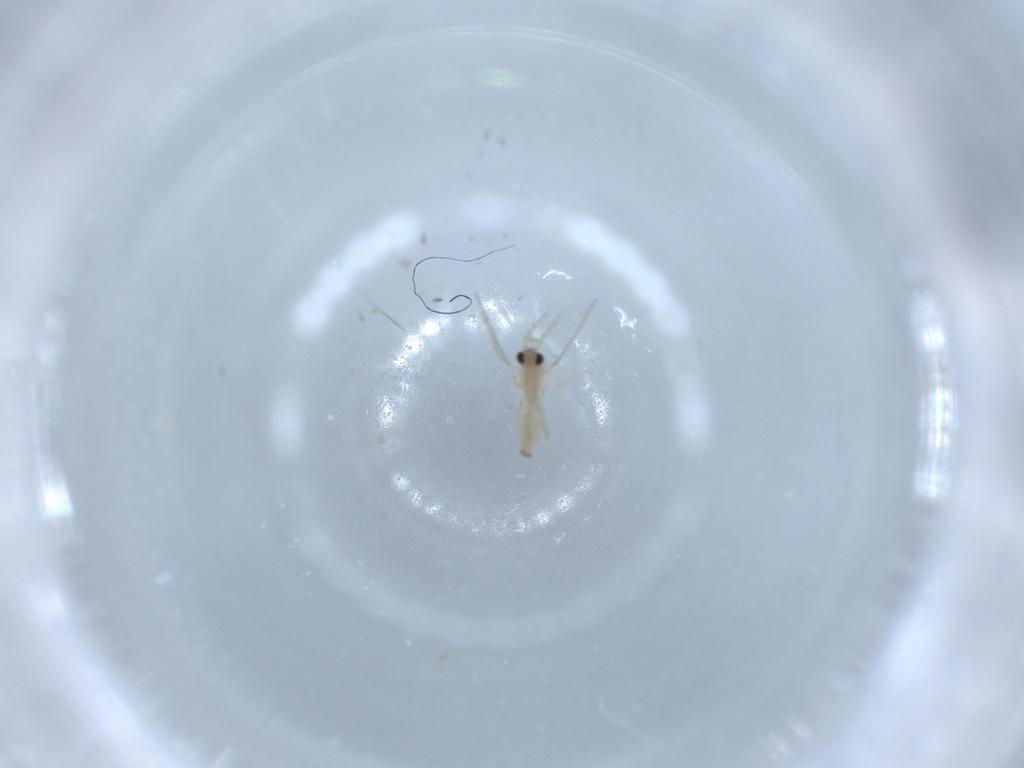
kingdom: Animalia
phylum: Arthropoda
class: Insecta
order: Diptera
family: Cecidomyiidae
